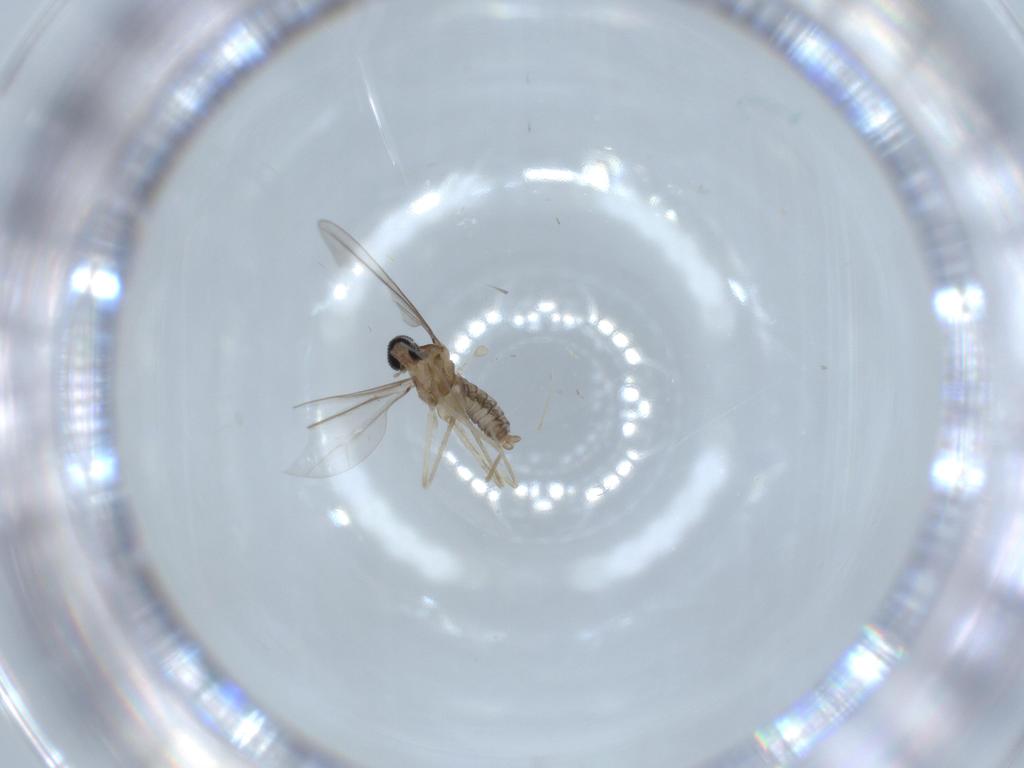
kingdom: Animalia
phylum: Arthropoda
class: Insecta
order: Diptera
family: Cecidomyiidae
